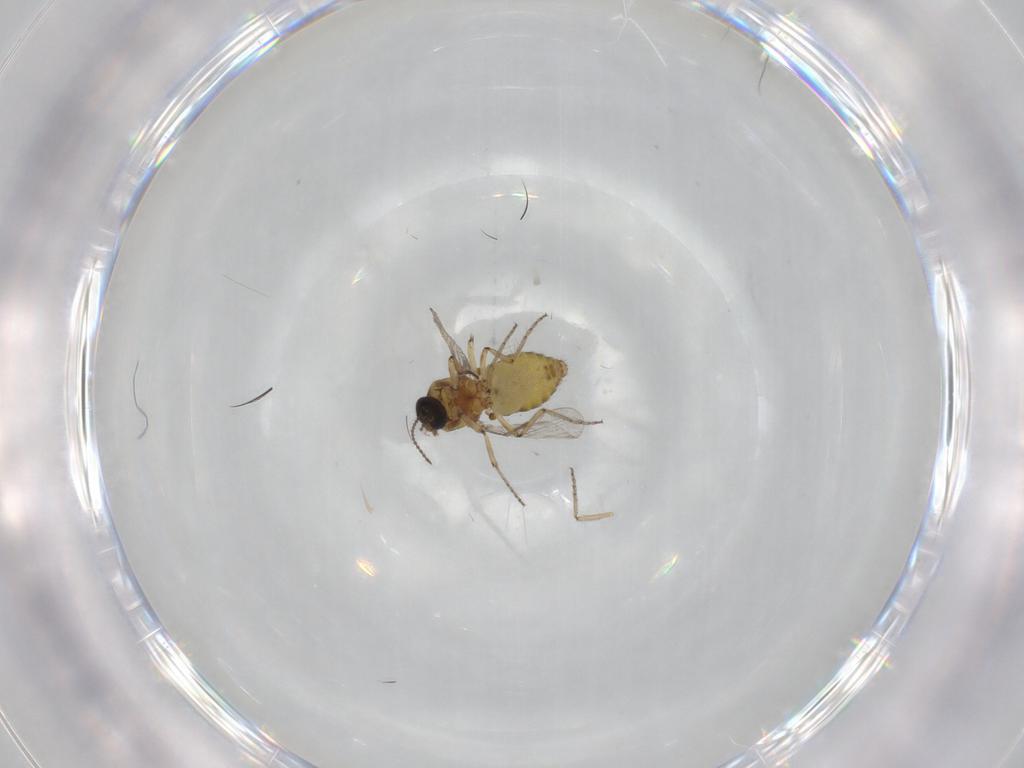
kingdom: Animalia
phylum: Arthropoda
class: Insecta
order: Diptera
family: Ceratopogonidae
